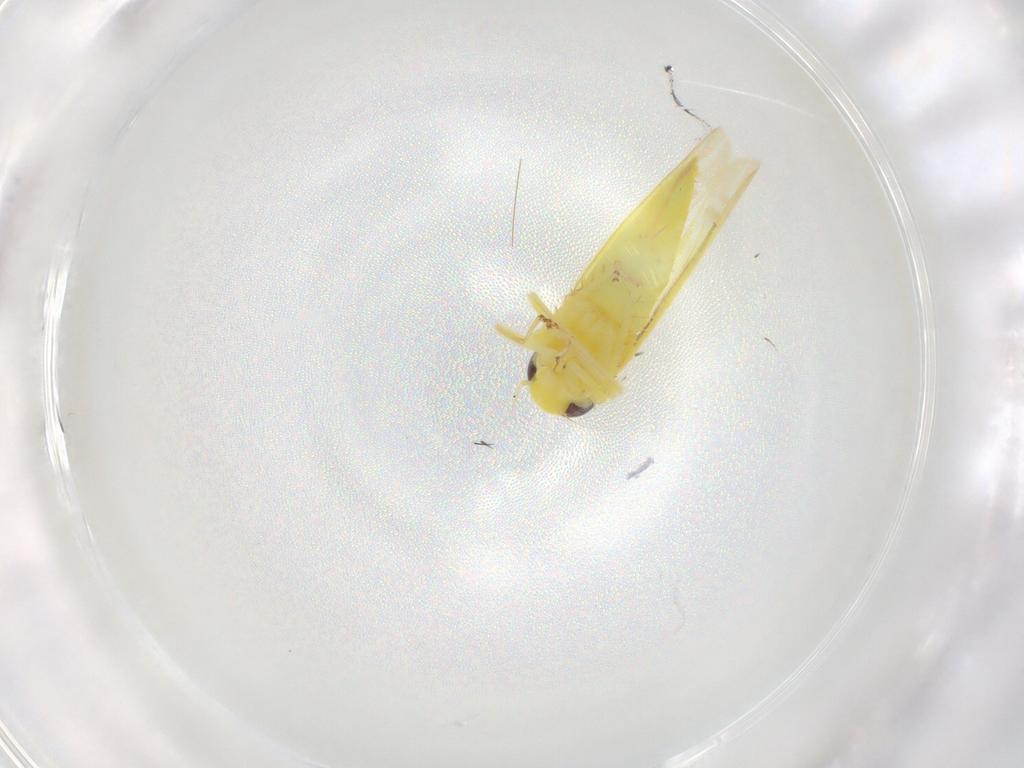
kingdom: Animalia
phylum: Arthropoda
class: Insecta
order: Hemiptera
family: Cicadellidae
